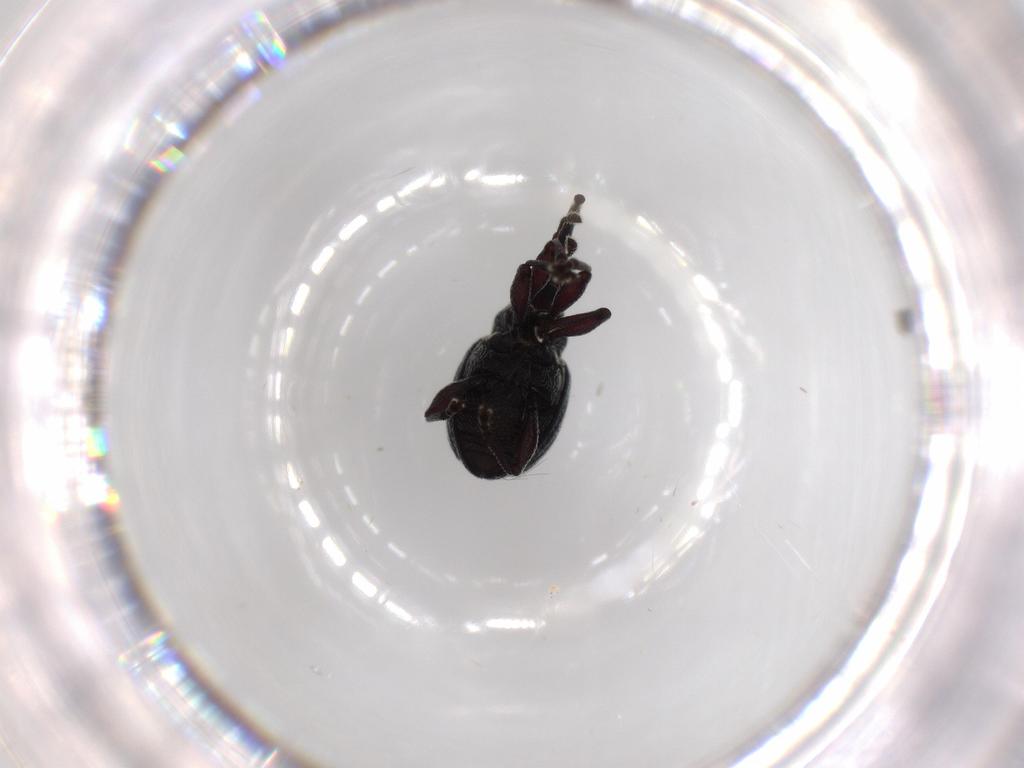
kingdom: Animalia
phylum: Arthropoda
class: Insecta
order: Coleoptera
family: Brentidae
